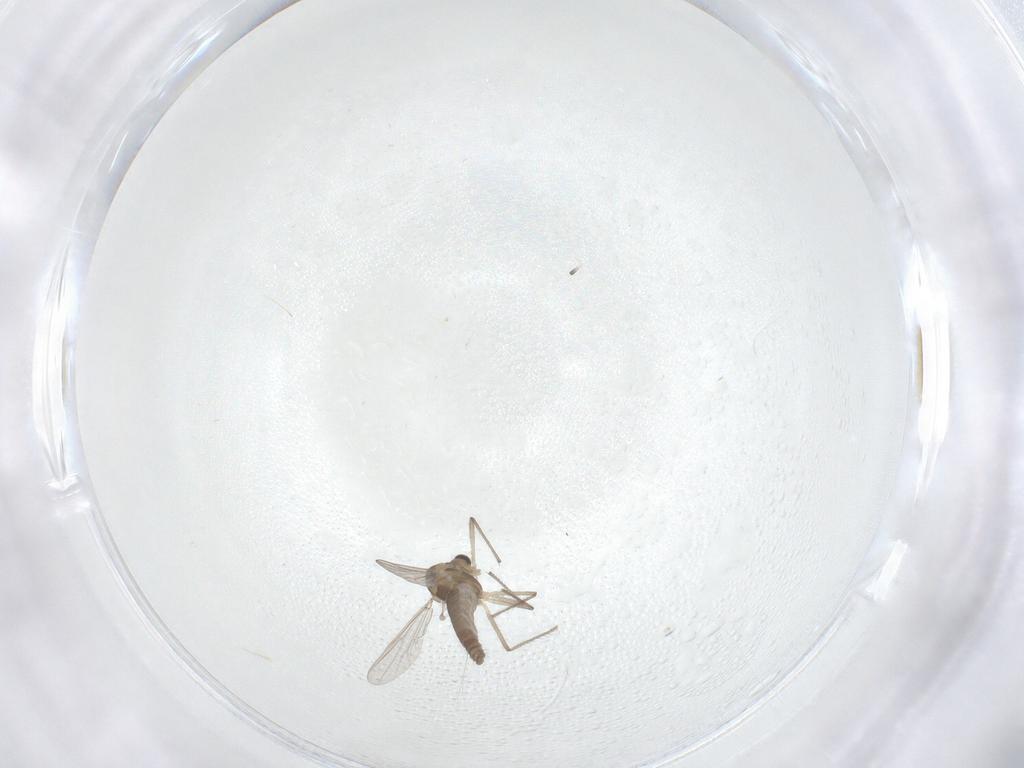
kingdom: Animalia
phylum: Arthropoda
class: Insecta
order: Diptera
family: Chironomidae
